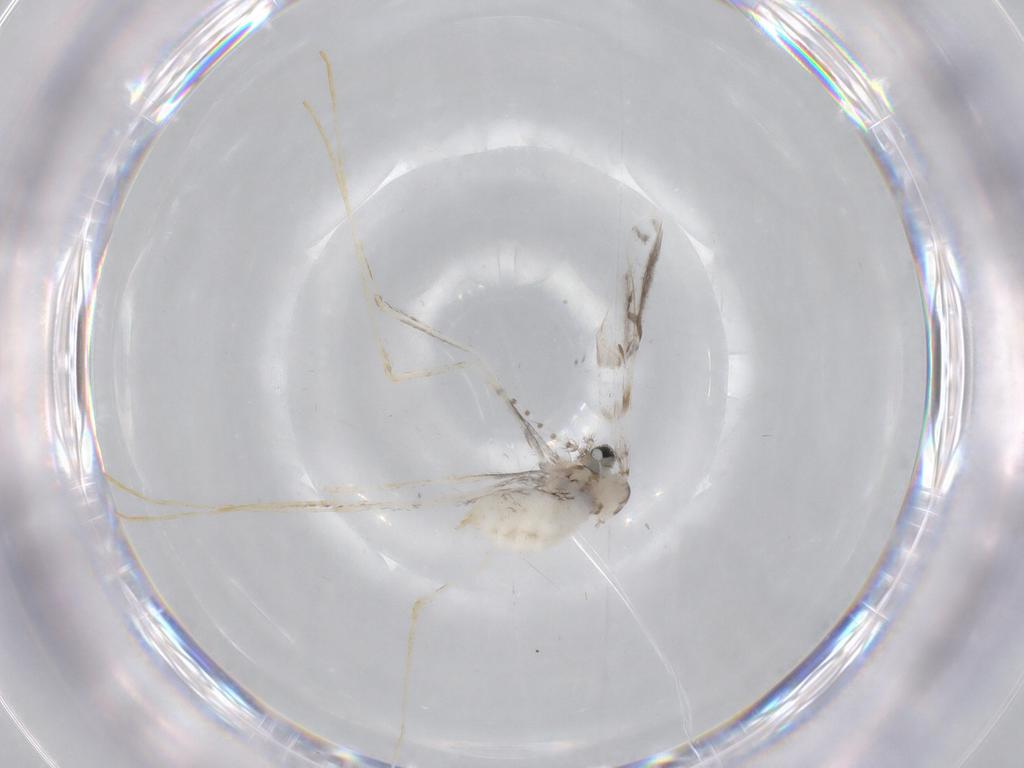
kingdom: Animalia
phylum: Arthropoda
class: Insecta
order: Diptera
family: Cecidomyiidae
